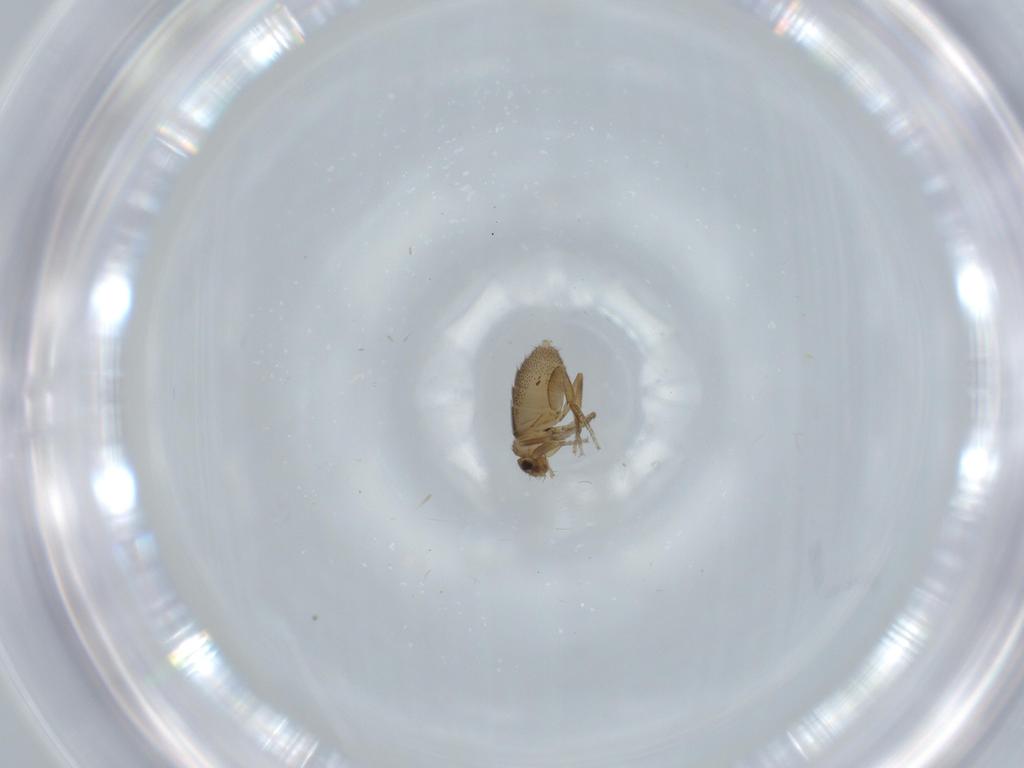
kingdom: Animalia
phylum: Arthropoda
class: Insecta
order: Diptera
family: Phoridae
